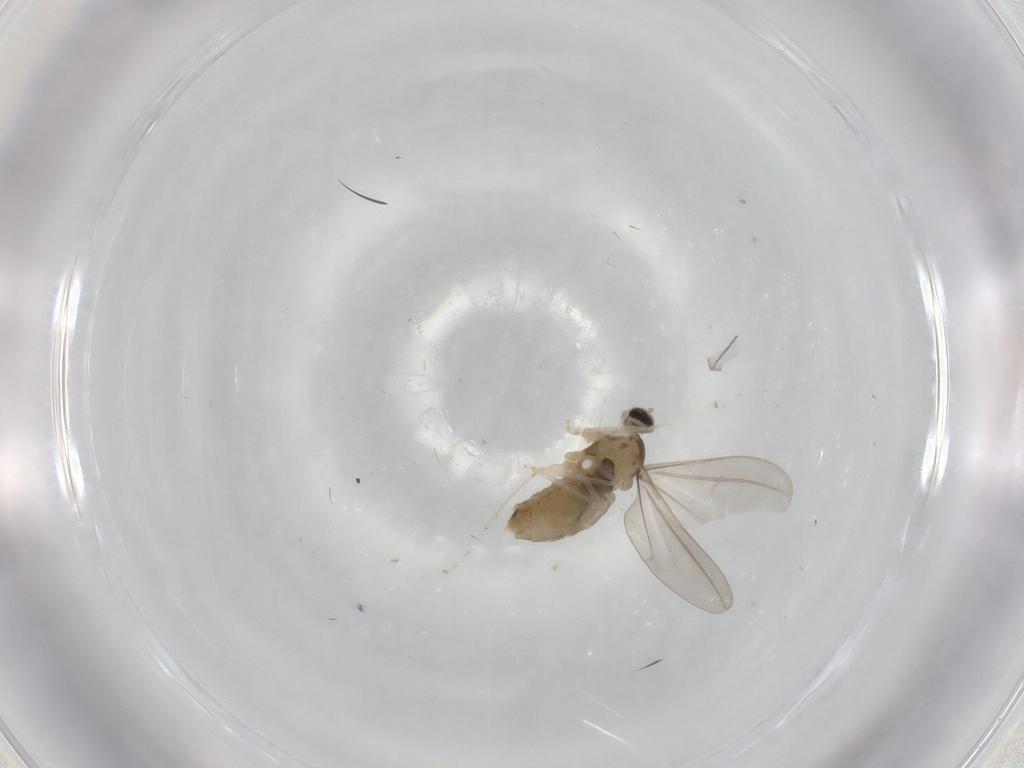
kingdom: Animalia
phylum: Arthropoda
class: Insecta
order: Diptera
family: Cecidomyiidae
